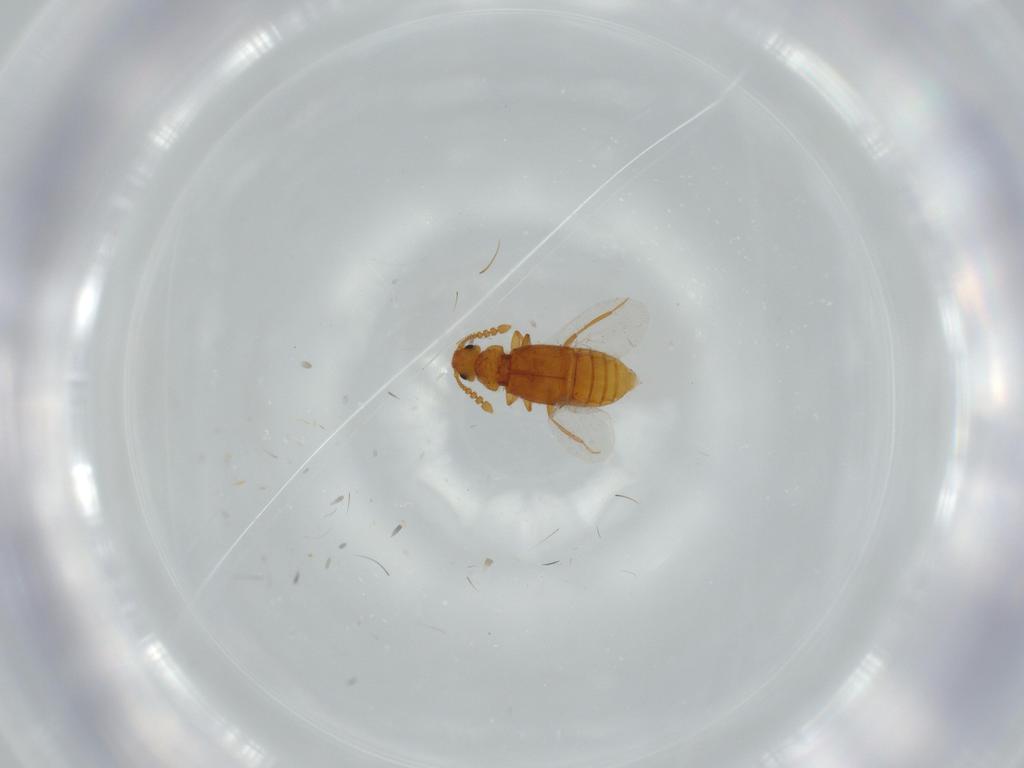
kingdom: Animalia
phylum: Arthropoda
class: Insecta
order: Coleoptera
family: Staphylinidae
